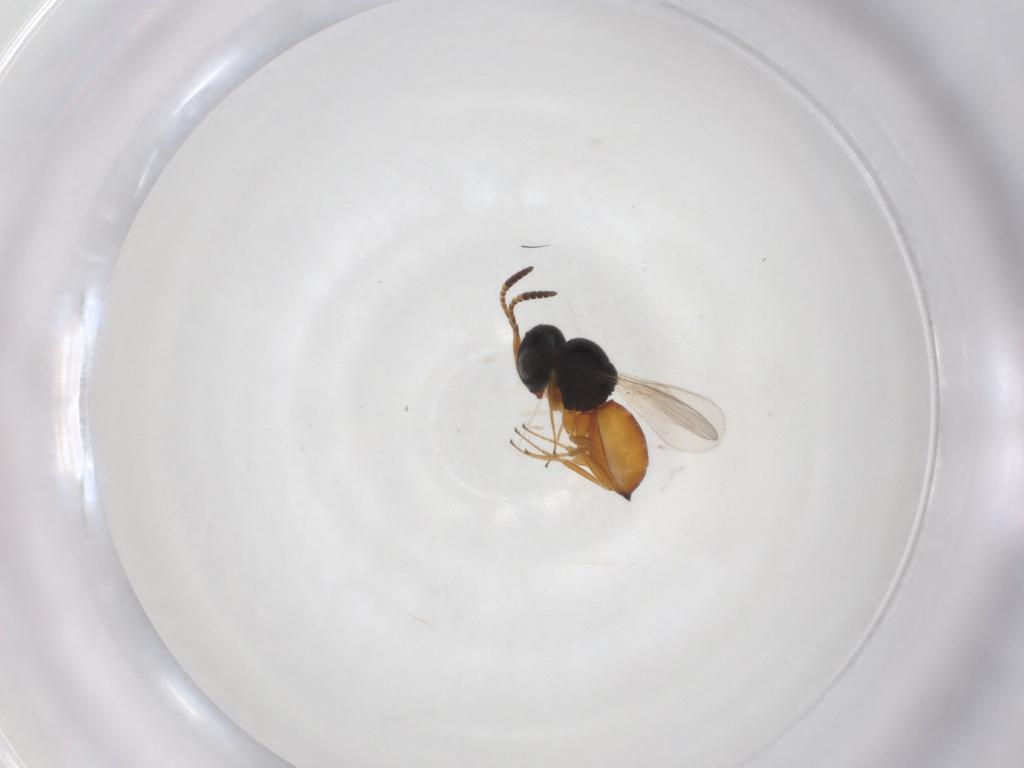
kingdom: Animalia
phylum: Arthropoda
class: Insecta
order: Hymenoptera
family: Scelionidae
